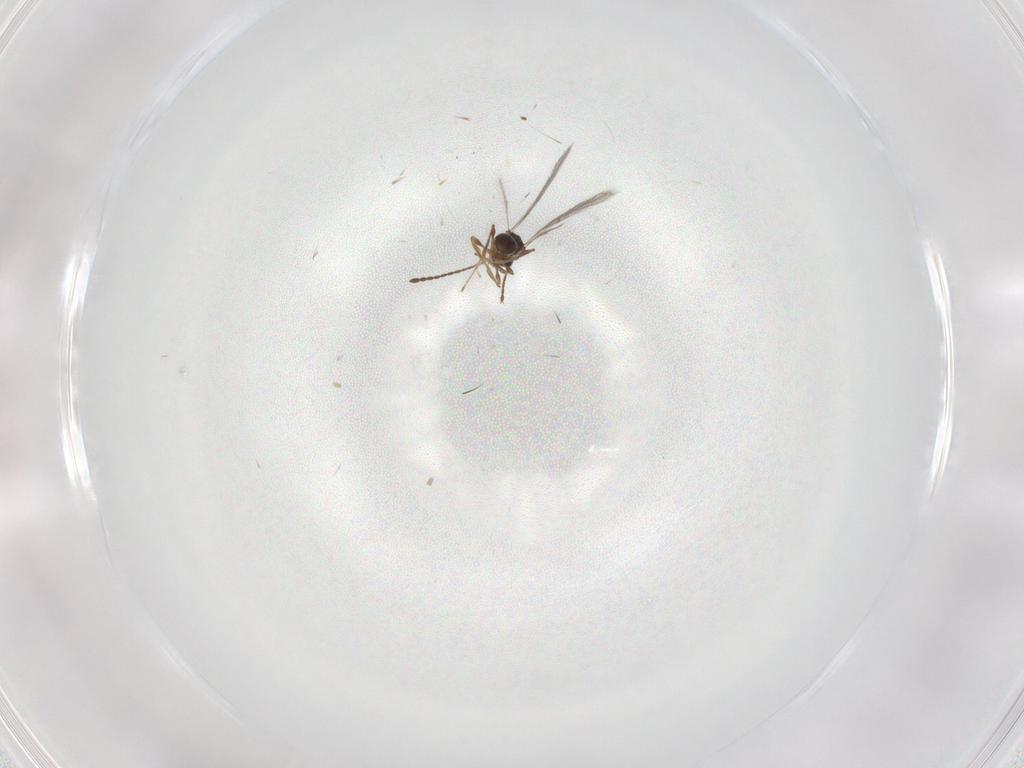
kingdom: Animalia
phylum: Arthropoda
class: Insecta
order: Hymenoptera
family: Diapriidae
